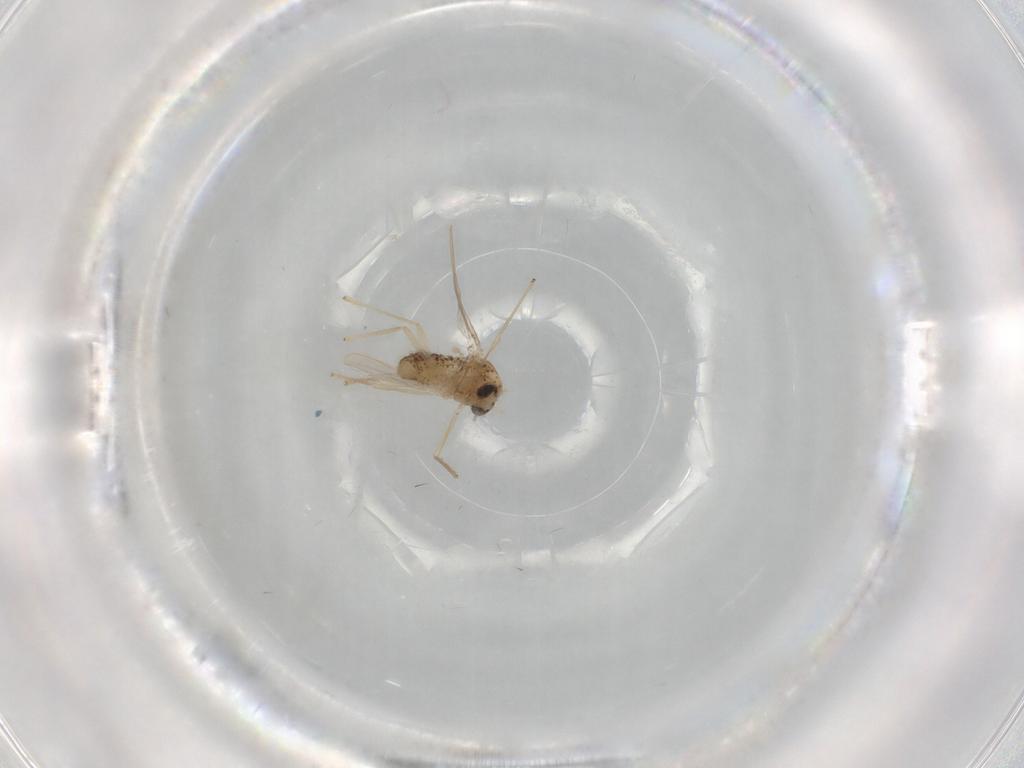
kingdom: Animalia
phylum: Arthropoda
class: Insecta
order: Diptera
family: Chironomidae
